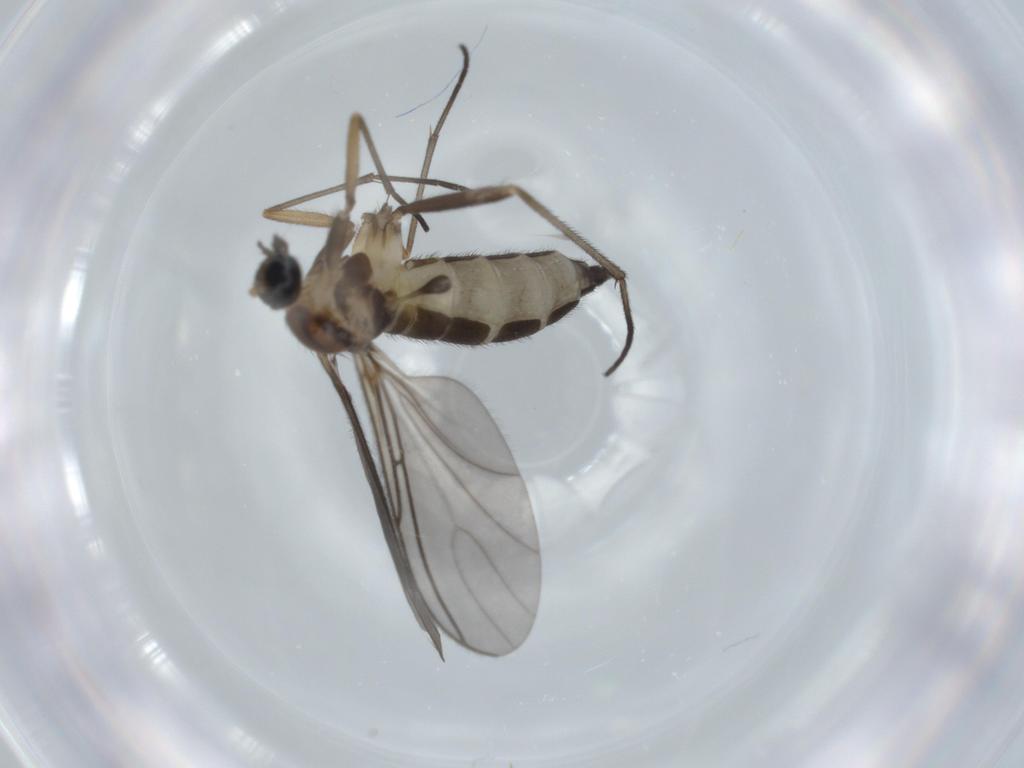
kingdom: Animalia
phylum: Arthropoda
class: Insecta
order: Diptera
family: Sciaridae
